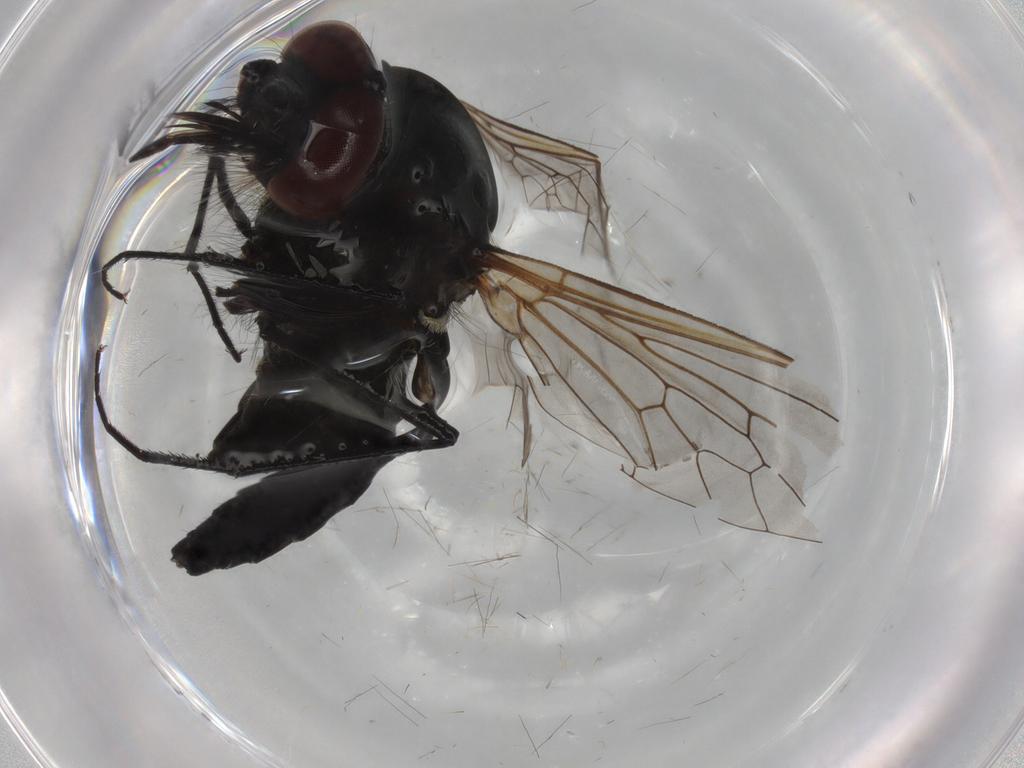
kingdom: Animalia
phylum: Arthropoda
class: Insecta
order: Diptera
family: Bombyliidae
